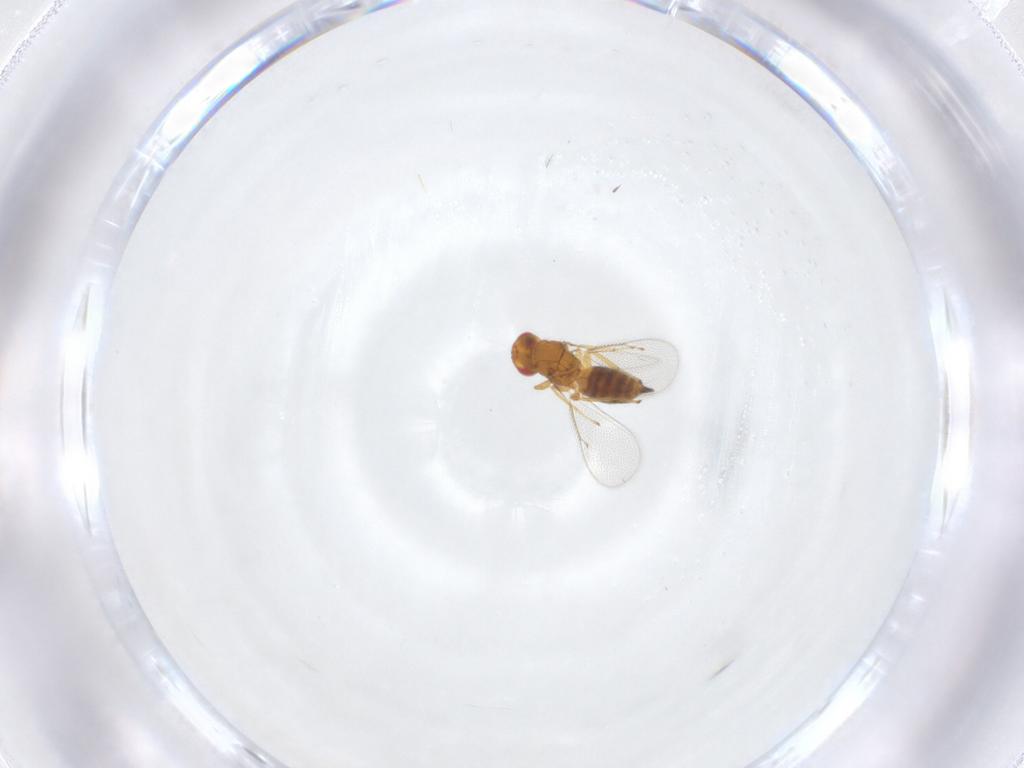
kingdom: Animalia
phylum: Arthropoda
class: Insecta
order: Hymenoptera
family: Eulophidae
